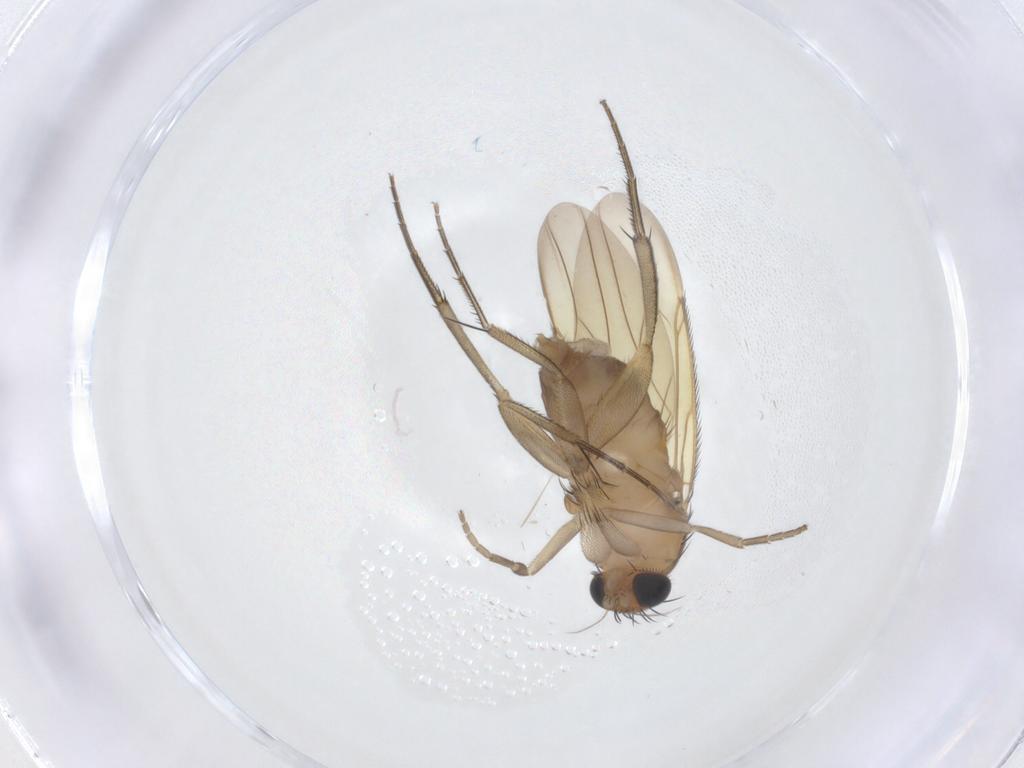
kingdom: Animalia
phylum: Arthropoda
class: Insecta
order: Diptera
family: Phoridae
